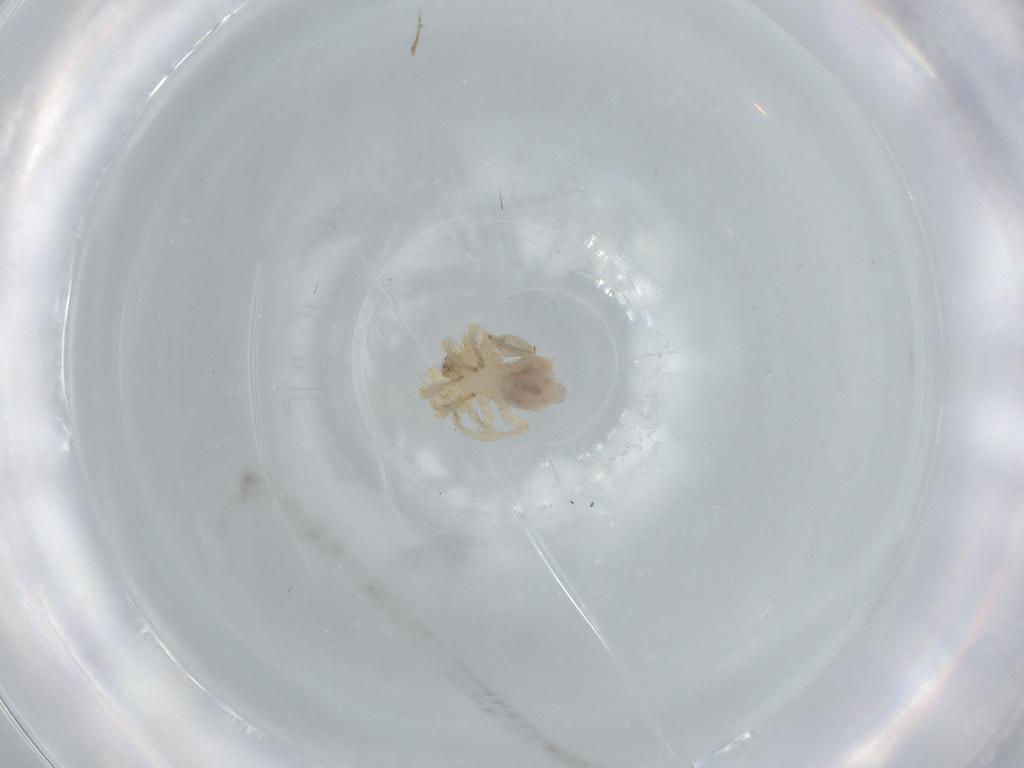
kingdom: Animalia
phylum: Arthropoda
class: Arachnida
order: Araneae
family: Oonopidae
